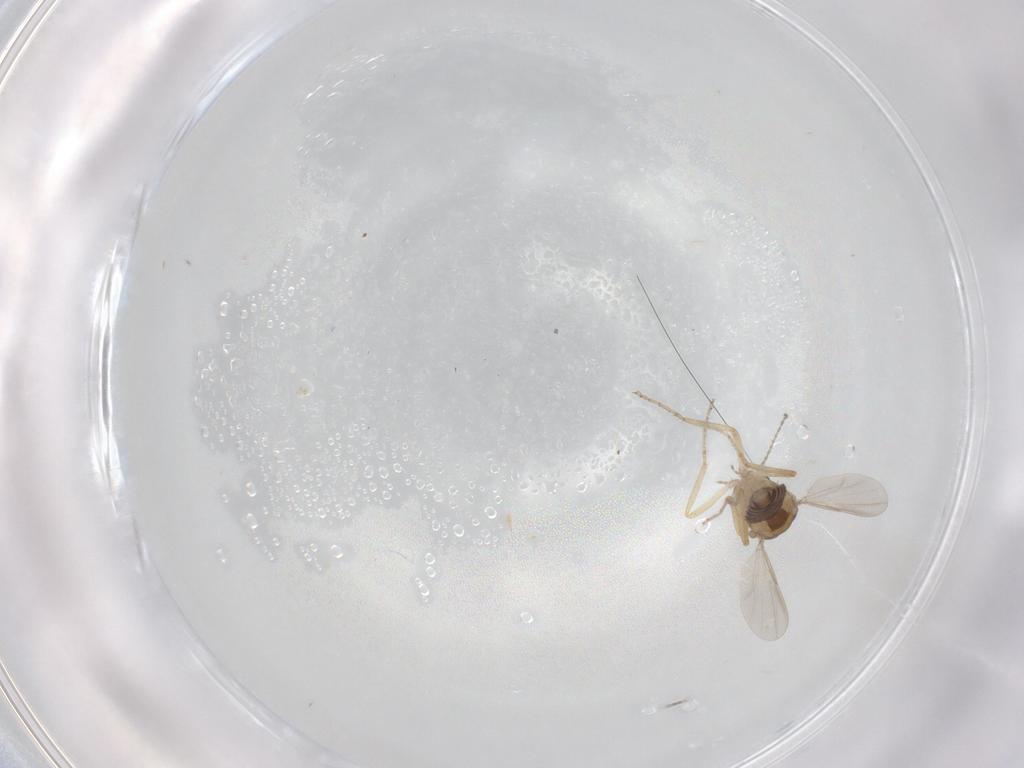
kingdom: Animalia
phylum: Arthropoda
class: Insecta
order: Diptera
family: Ceratopogonidae
